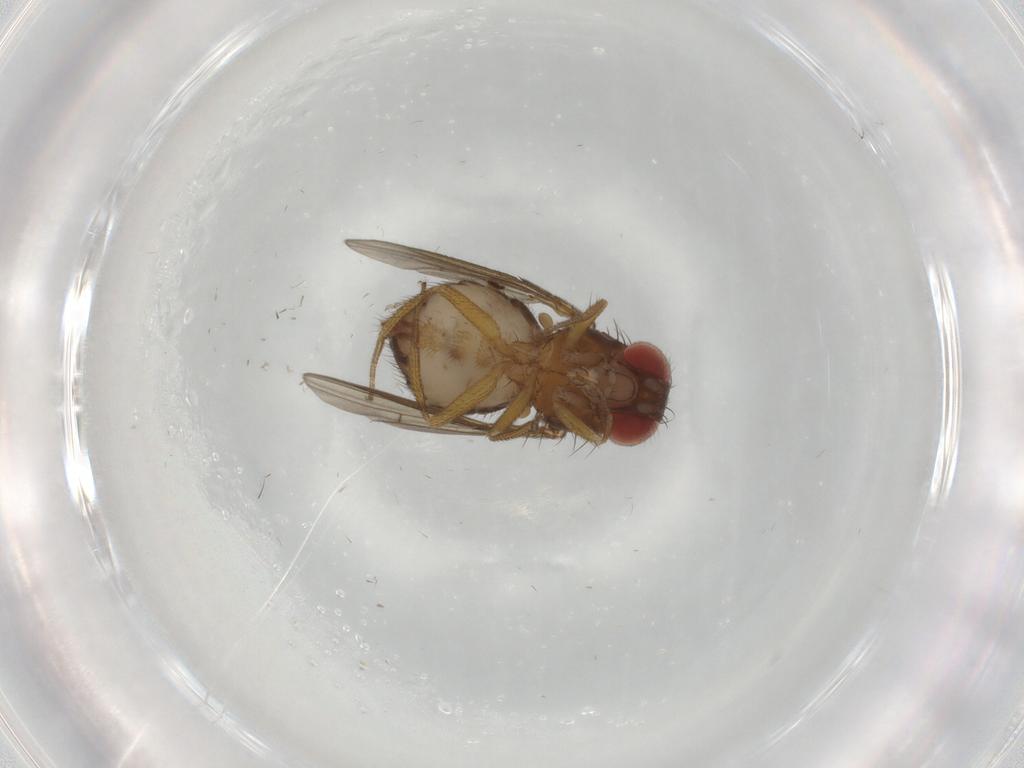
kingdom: Animalia
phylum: Arthropoda
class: Insecta
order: Diptera
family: Drosophilidae
